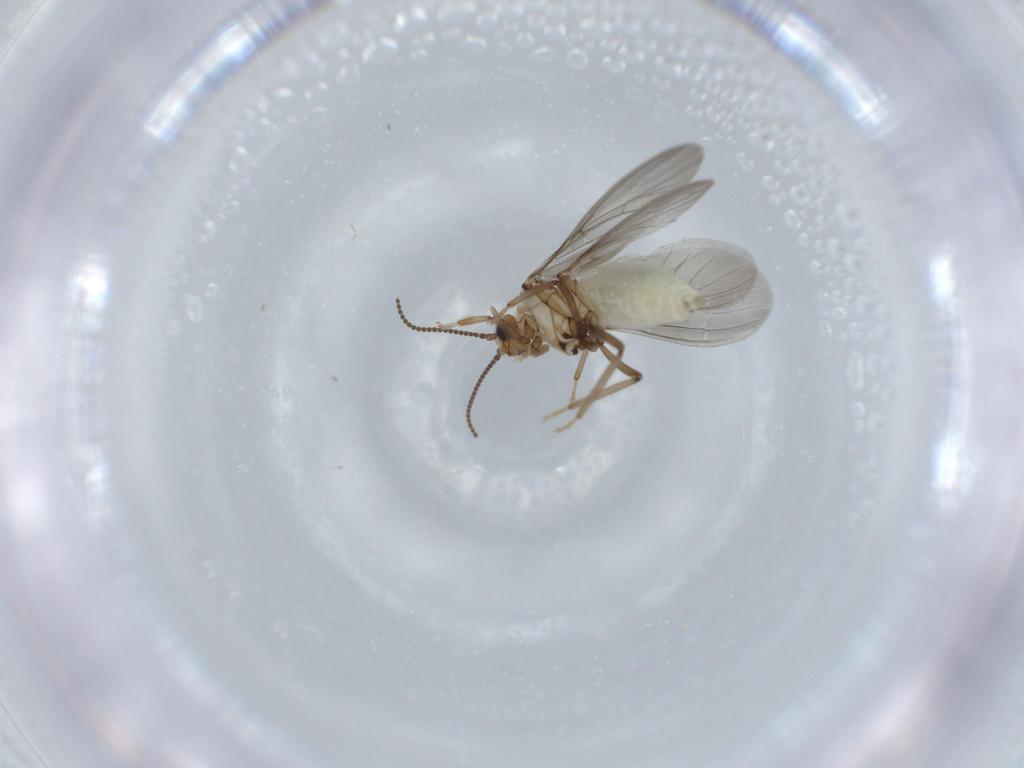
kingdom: Animalia
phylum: Arthropoda
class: Insecta
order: Neuroptera
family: Coniopterygidae
